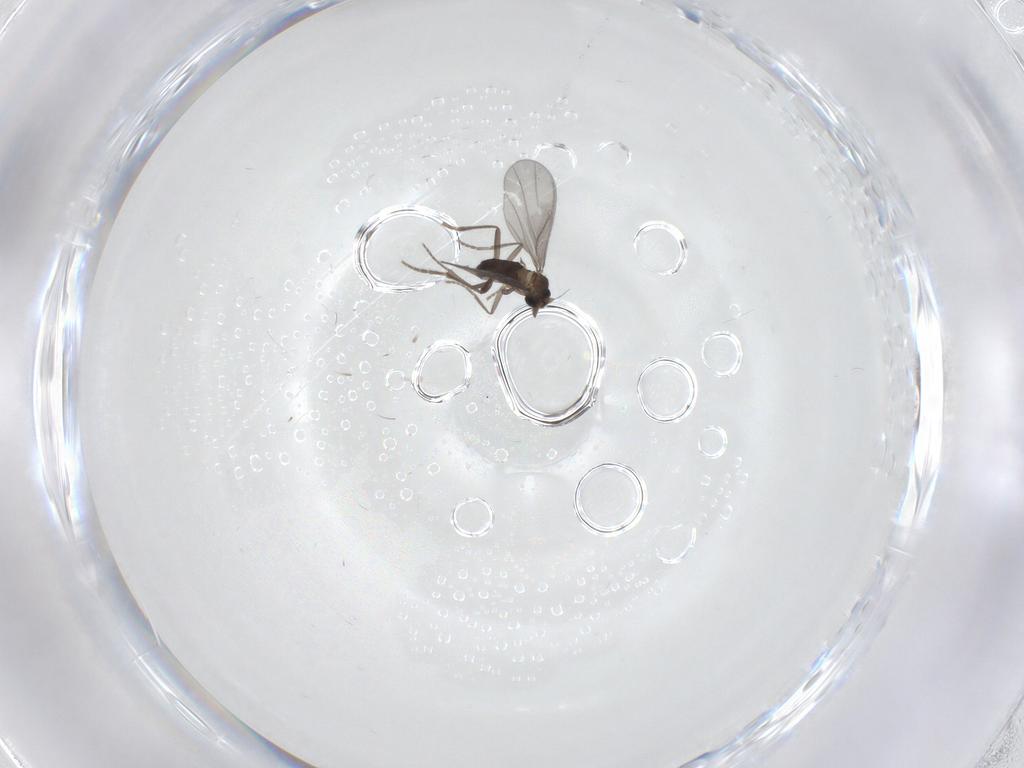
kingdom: Animalia
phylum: Arthropoda
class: Insecta
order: Diptera
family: Phoridae
